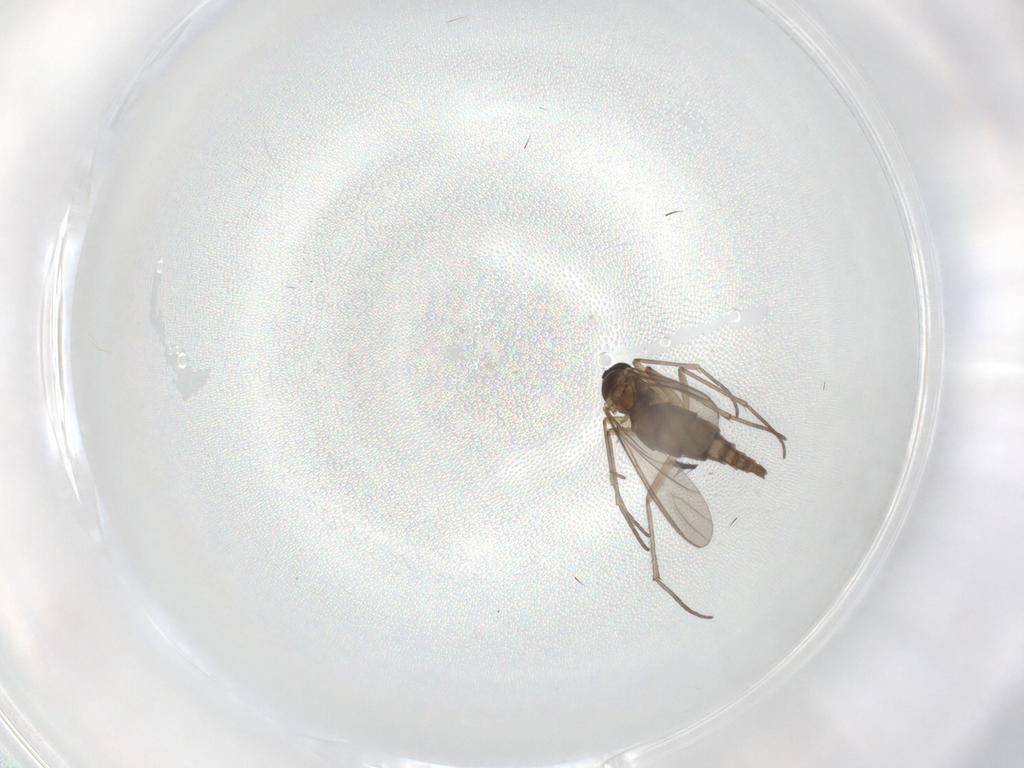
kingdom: Animalia
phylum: Arthropoda
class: Insecta
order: Diptera
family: Sciaridae
